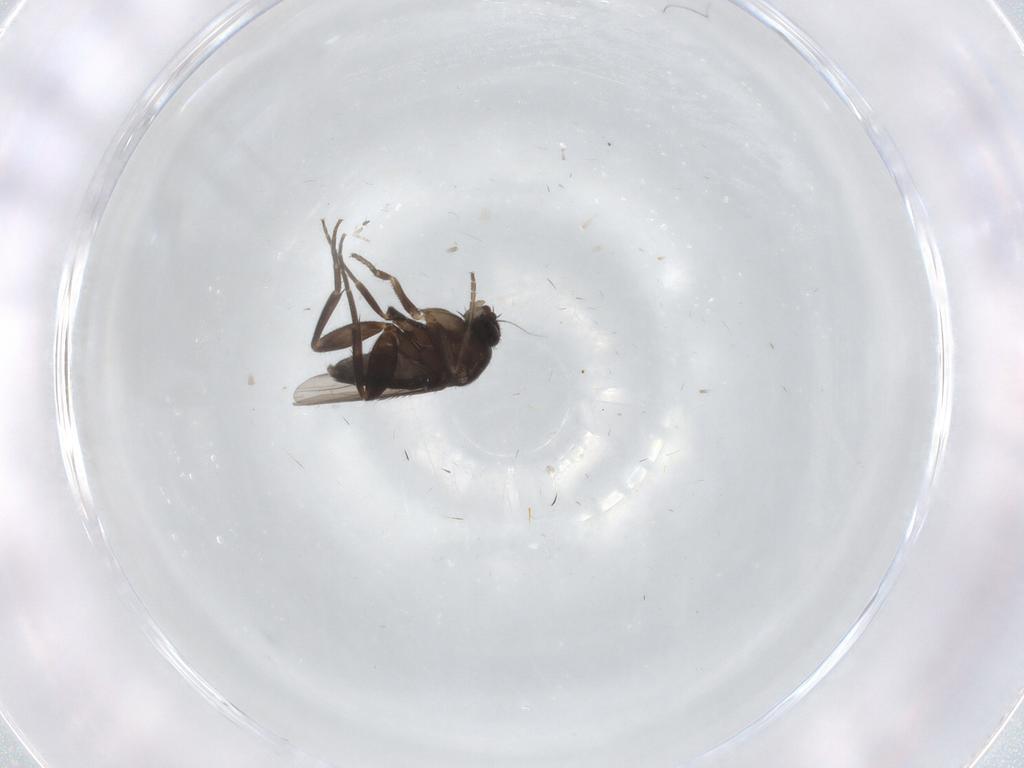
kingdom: Animalia
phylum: Arthropoda
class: Insecta
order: Diptera
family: Phoridae
